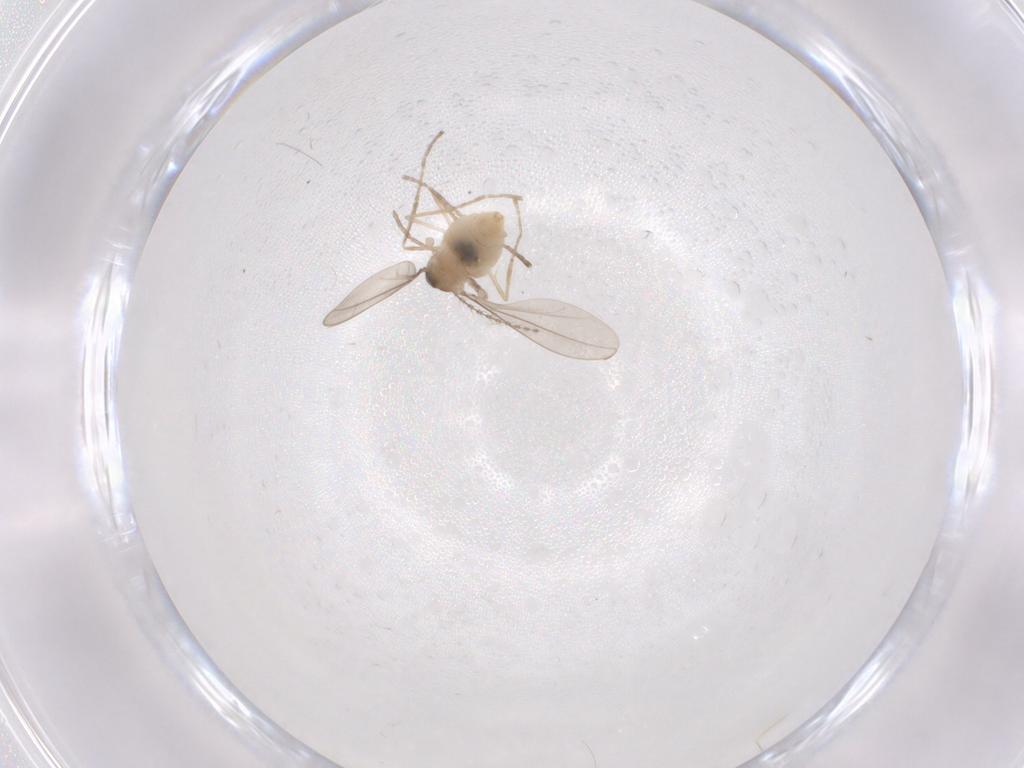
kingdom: Animalia
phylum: Arthropoda
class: Insecta
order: Diptera
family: Cecidomyiidae
